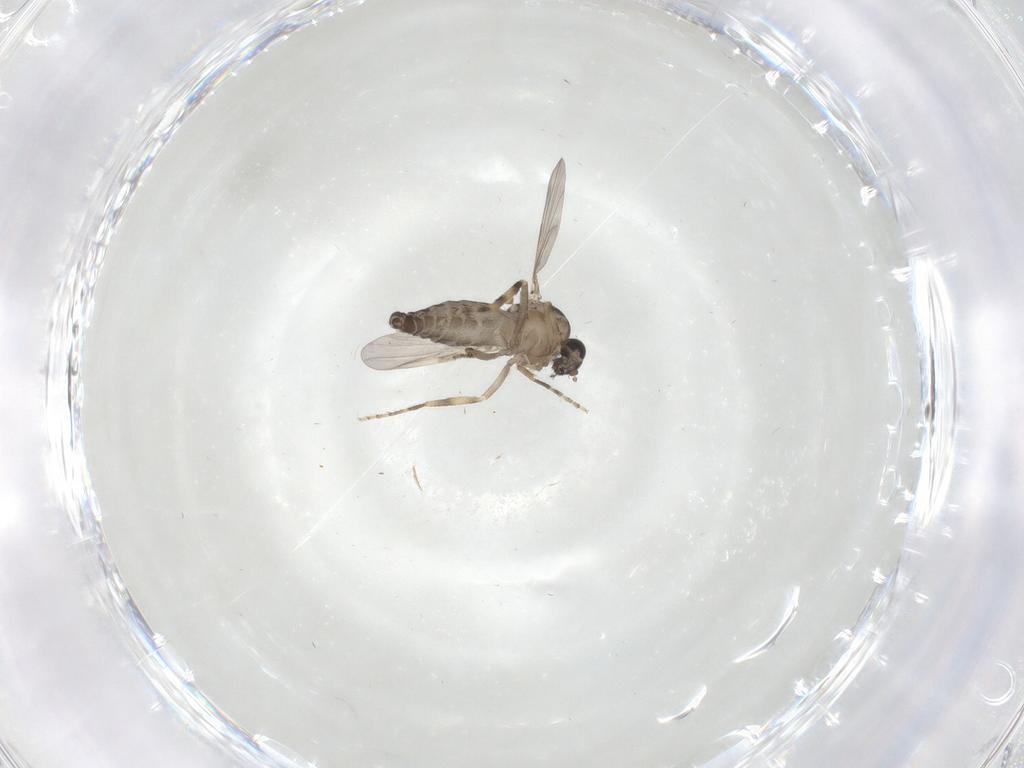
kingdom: Animalia
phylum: Arthropoda
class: Insecta
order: Diptera
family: Ceratopogonidae
